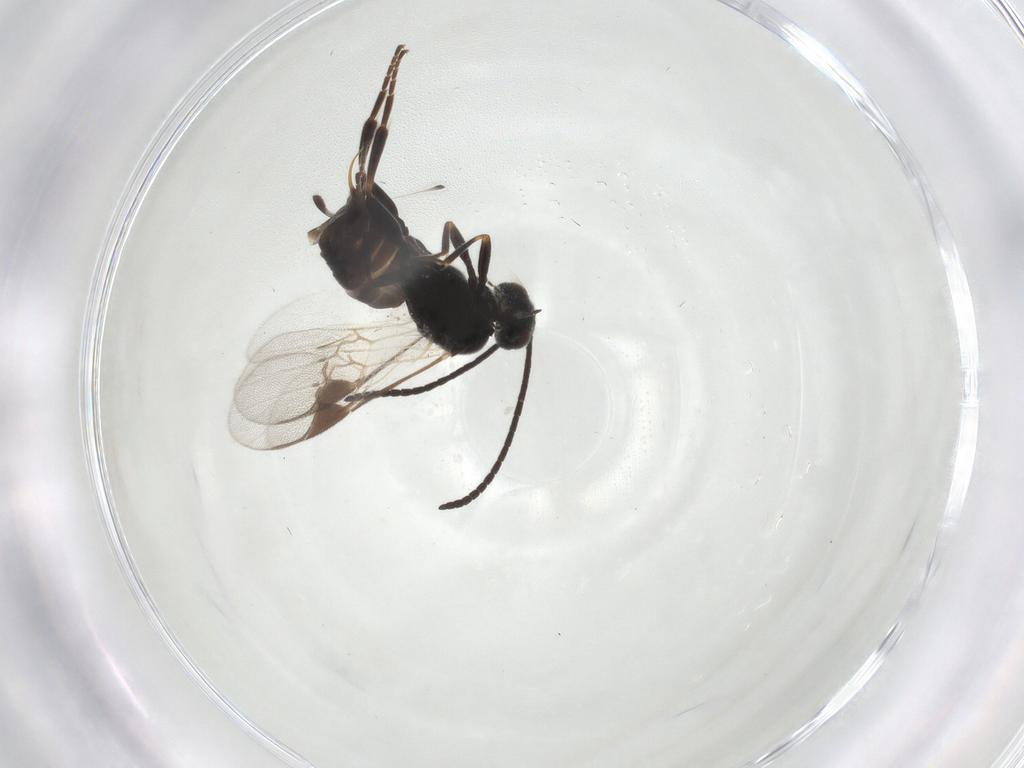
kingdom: Animalia
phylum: Arthropoda
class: Insecta
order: Hymenoptera
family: Braconidae
